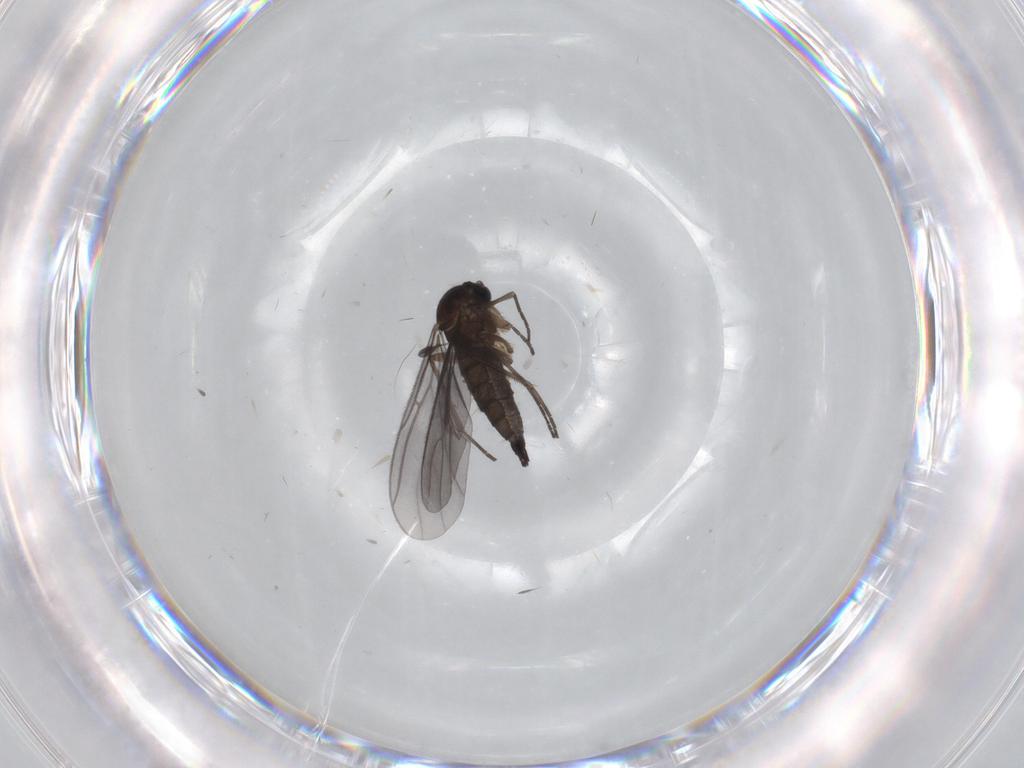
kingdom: Animalia
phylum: Arthropoda
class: Insecta
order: Diptera
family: Sciaridae
